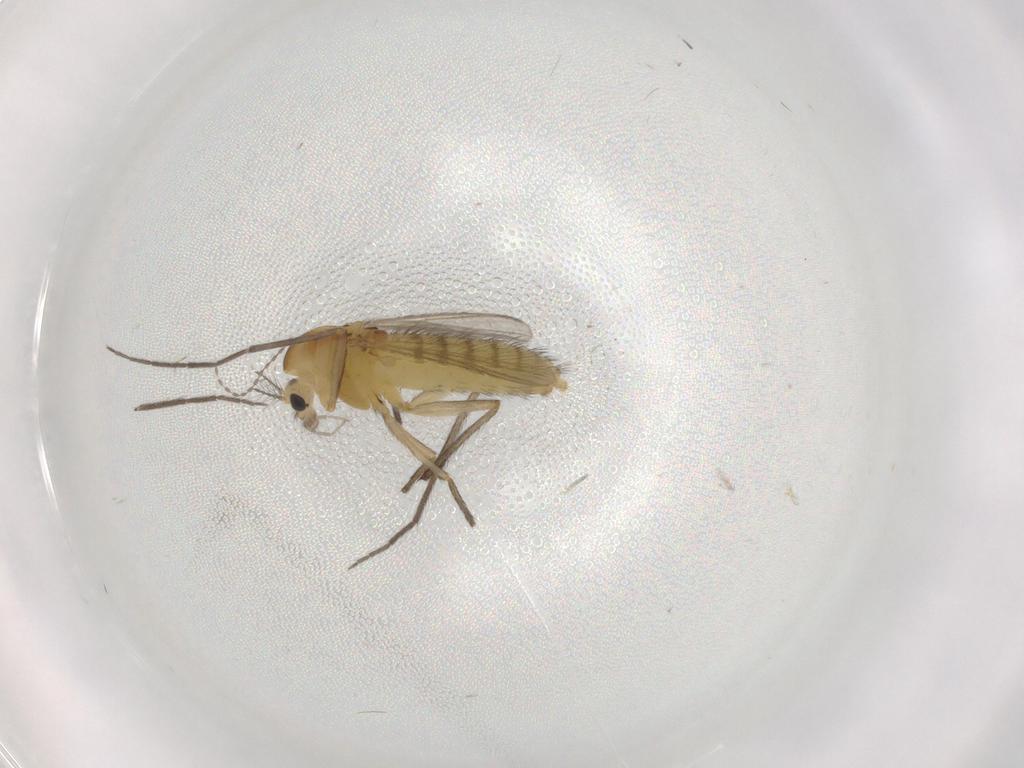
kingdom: Animalia
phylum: Arthropoda
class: Insecta
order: Diptera
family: Chironomidae
